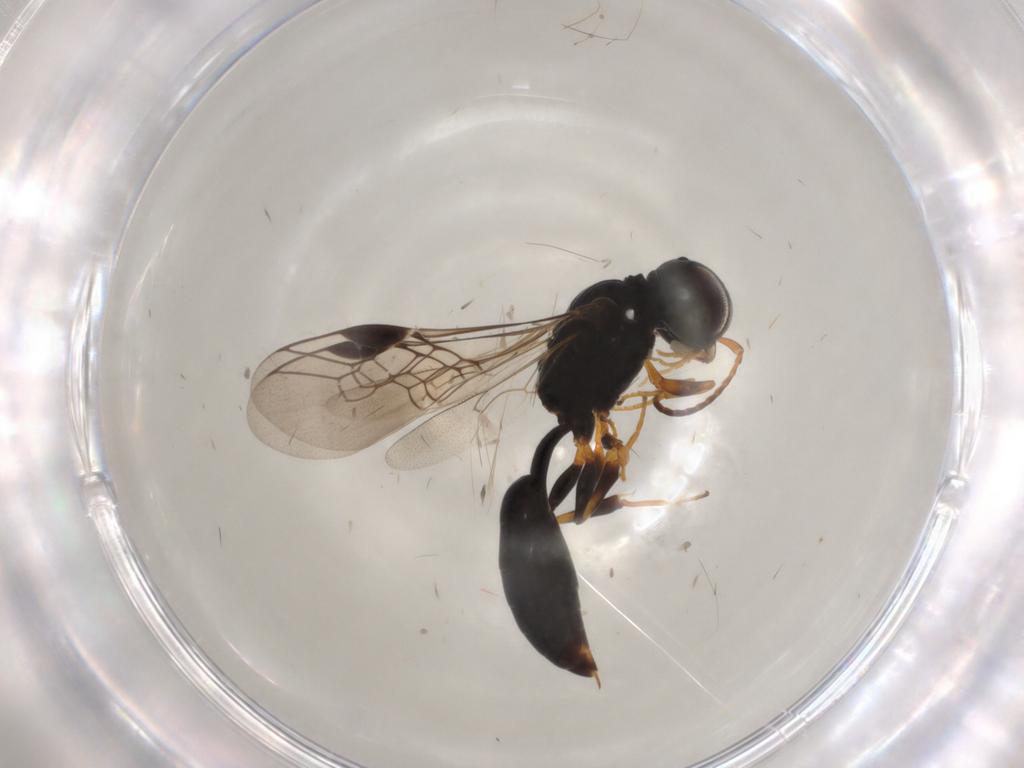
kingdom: Animalia
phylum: Arthropoda
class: Insecta
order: Hymenoptera
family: Pemphredonidae
